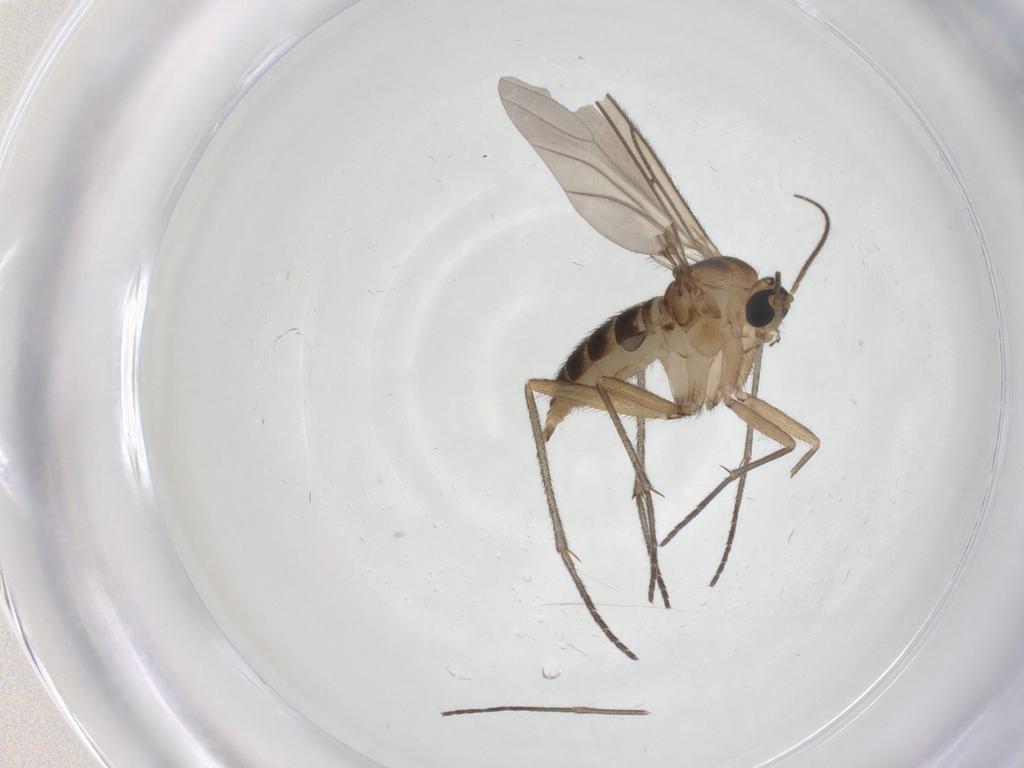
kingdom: Animalia
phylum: Arthropoda
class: Insecta
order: Diptera
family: Sciaridae
